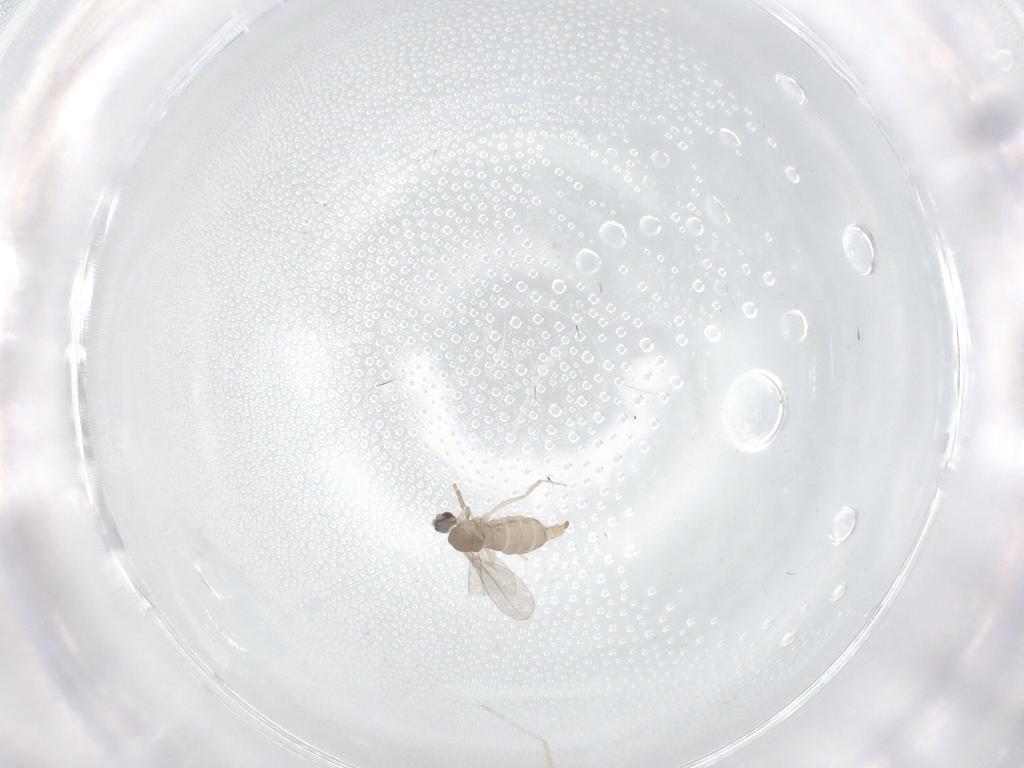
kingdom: Animalia
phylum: Arthropoda
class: Insecta
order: Diptera
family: Cecidomyiidae
